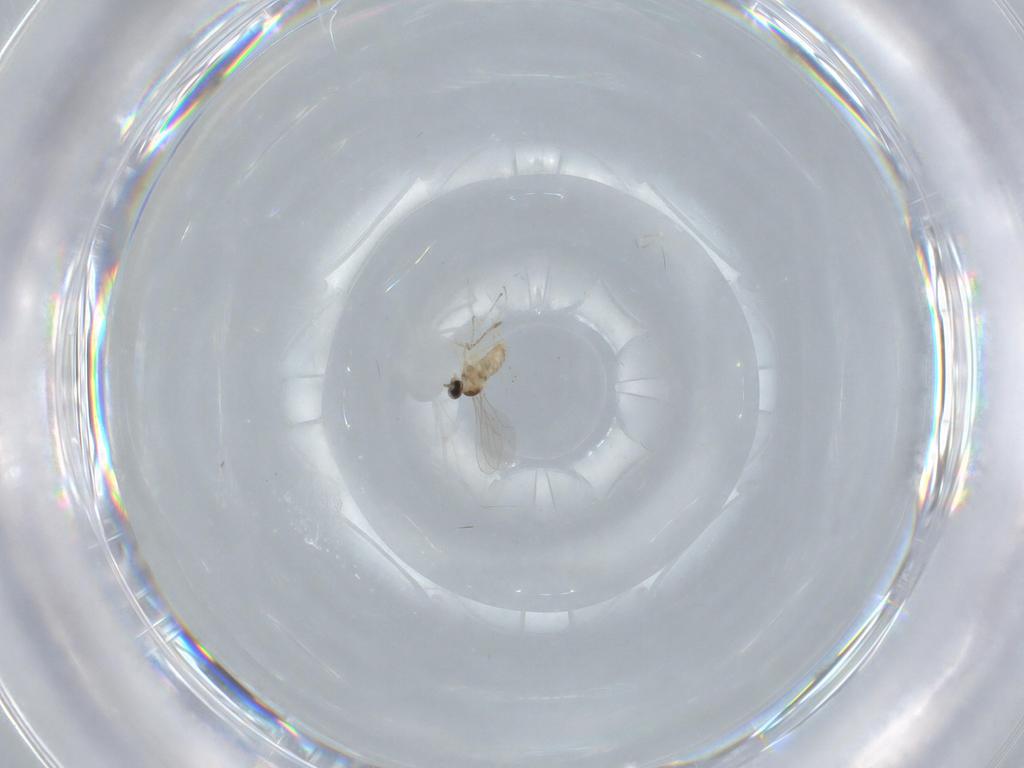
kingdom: Animalia
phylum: Arthropoda
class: Insecta
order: Diptera
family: Cecidomyiidae
